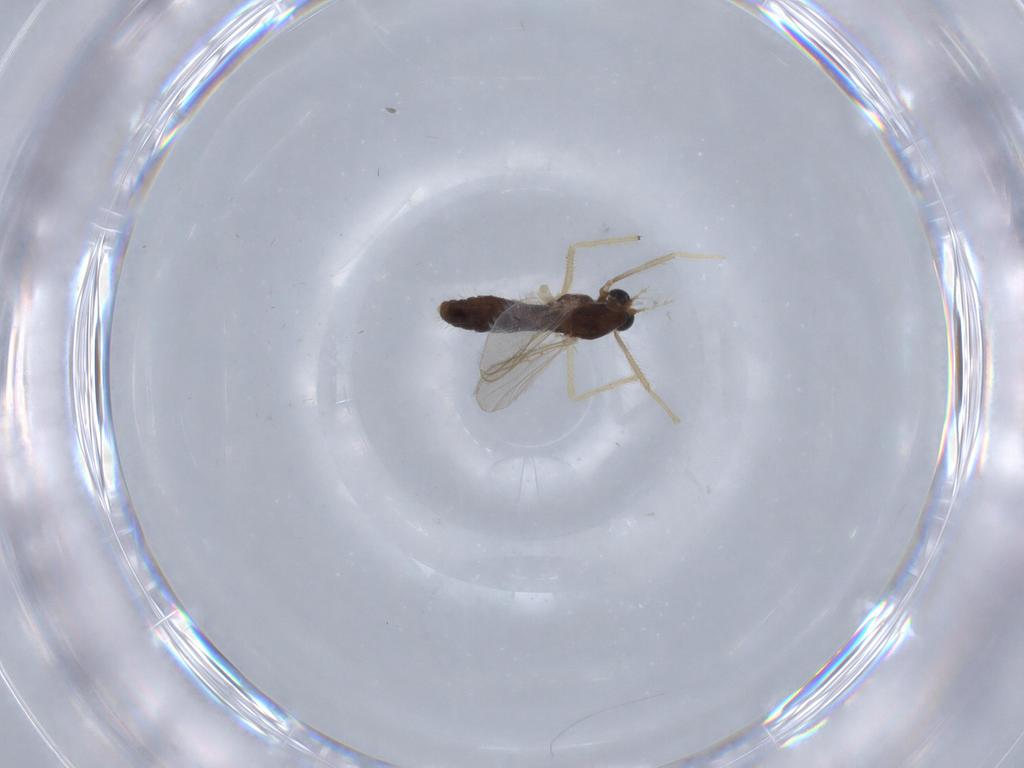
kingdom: Animalia
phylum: Arthropoda
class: Insecta
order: Diptera
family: Chironomidae
